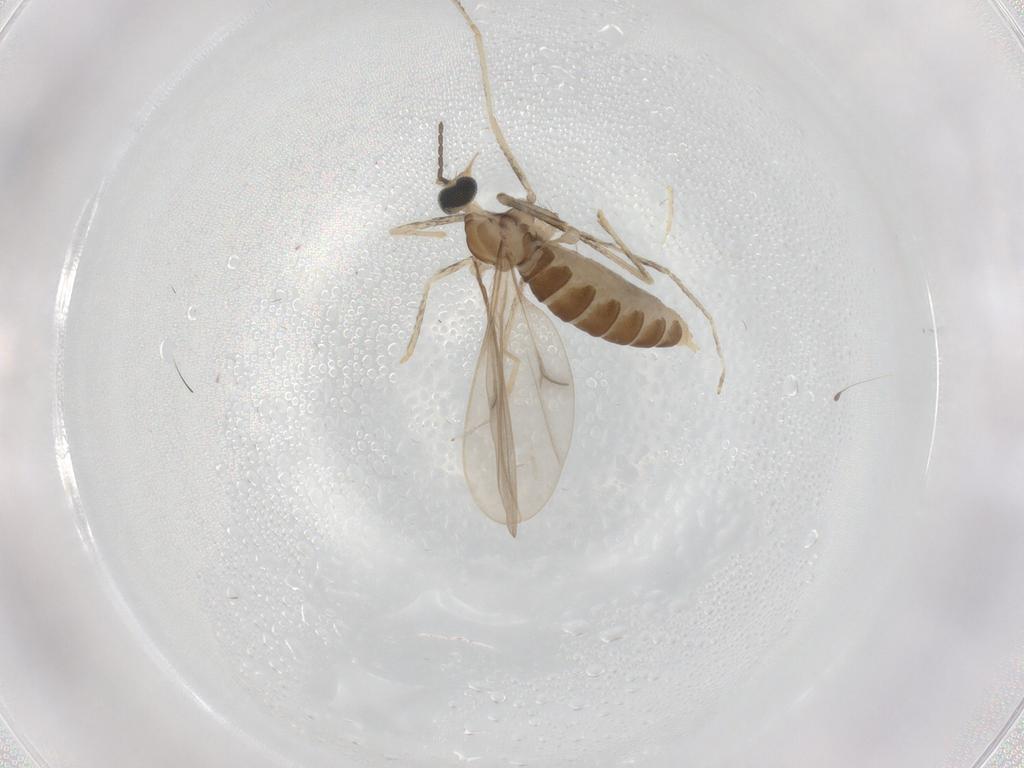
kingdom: Animalia
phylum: Arthropoda
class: Insecta
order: Diptera
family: Cecidomyiidae
